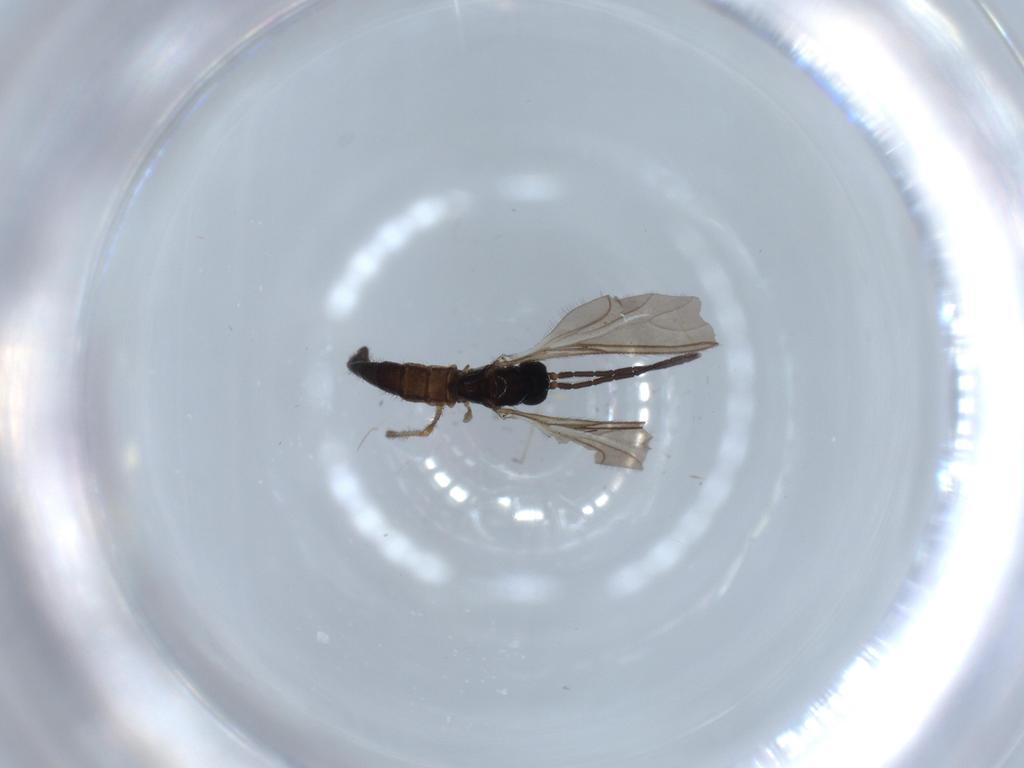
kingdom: Animalia
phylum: Arthropoda
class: Insecta
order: Diptera
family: Sciaridae
